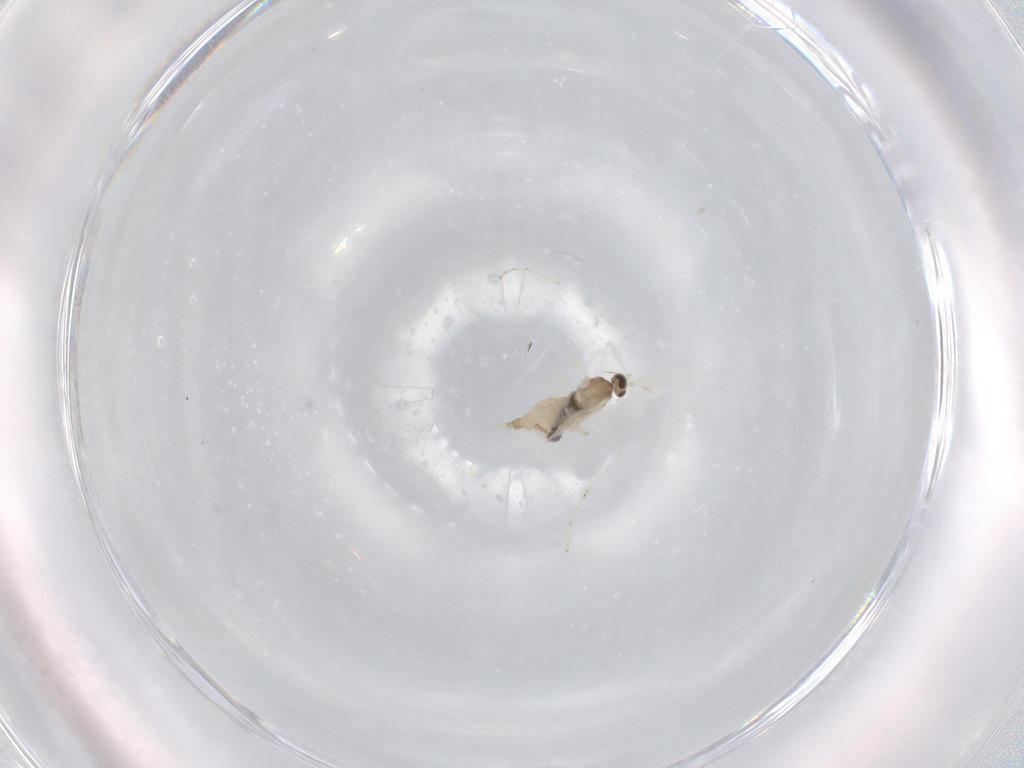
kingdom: Animalia
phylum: Arthropoda
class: Insecta
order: Diptera
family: Cecidomyiidae
